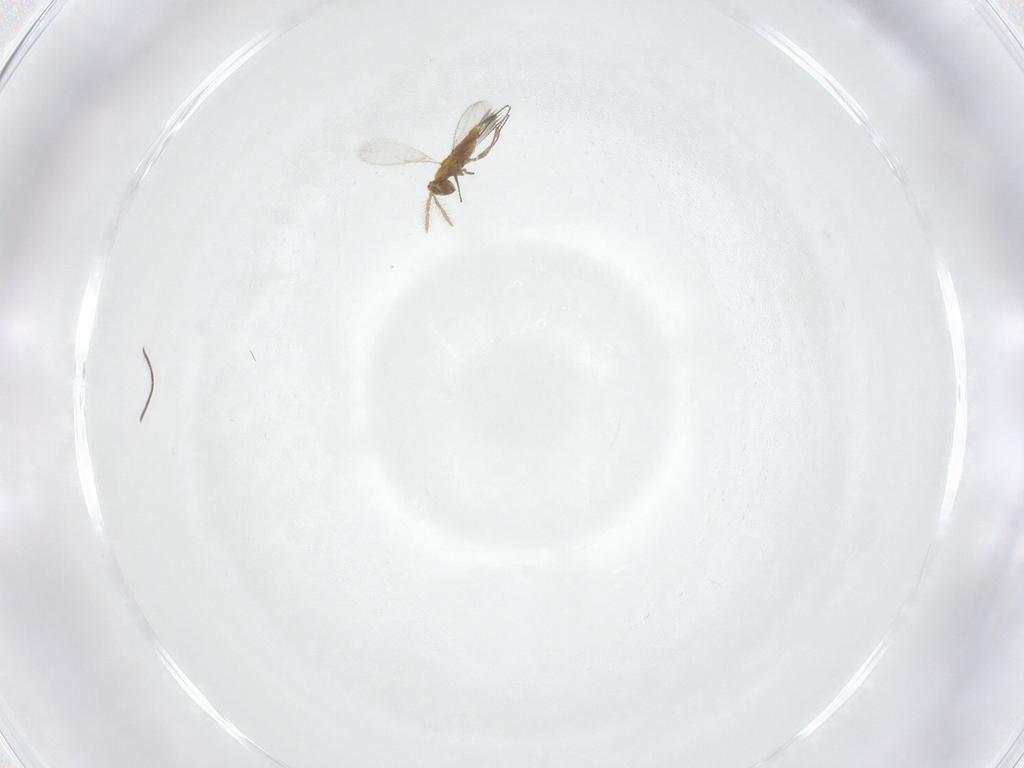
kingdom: Animalia
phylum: Arthropoda
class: Insecta
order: Hymenoptera
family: Aphelinidae
